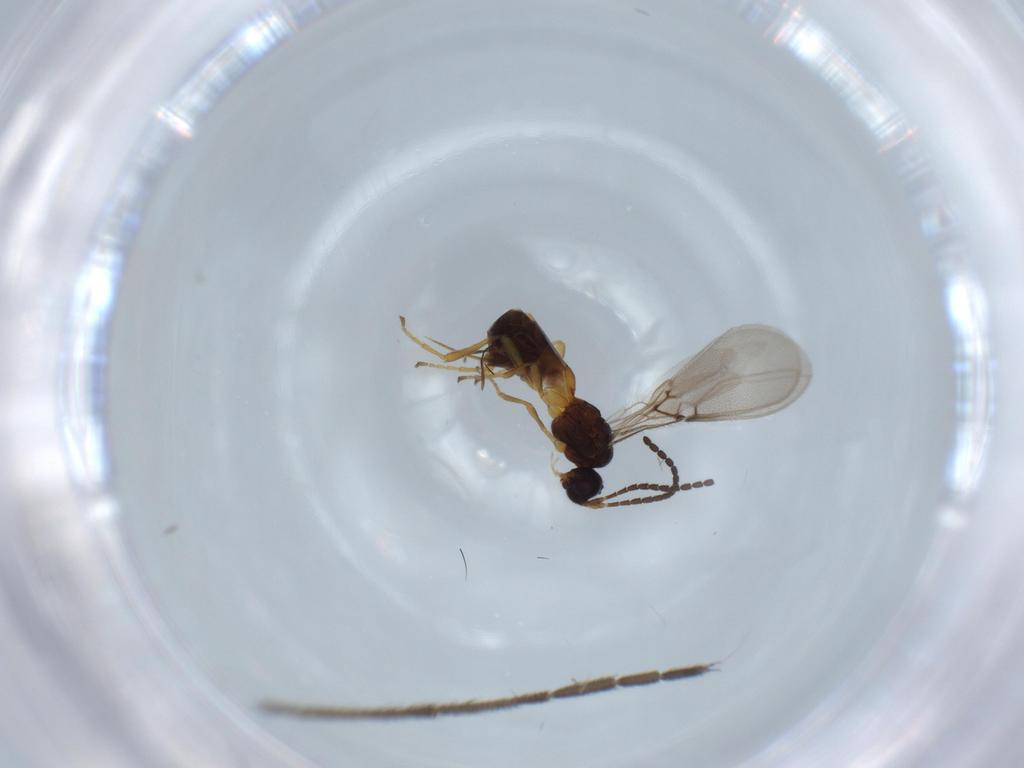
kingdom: Animalia
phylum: Arthropoda
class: Insecta
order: Hymenoptera
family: Braconidae
